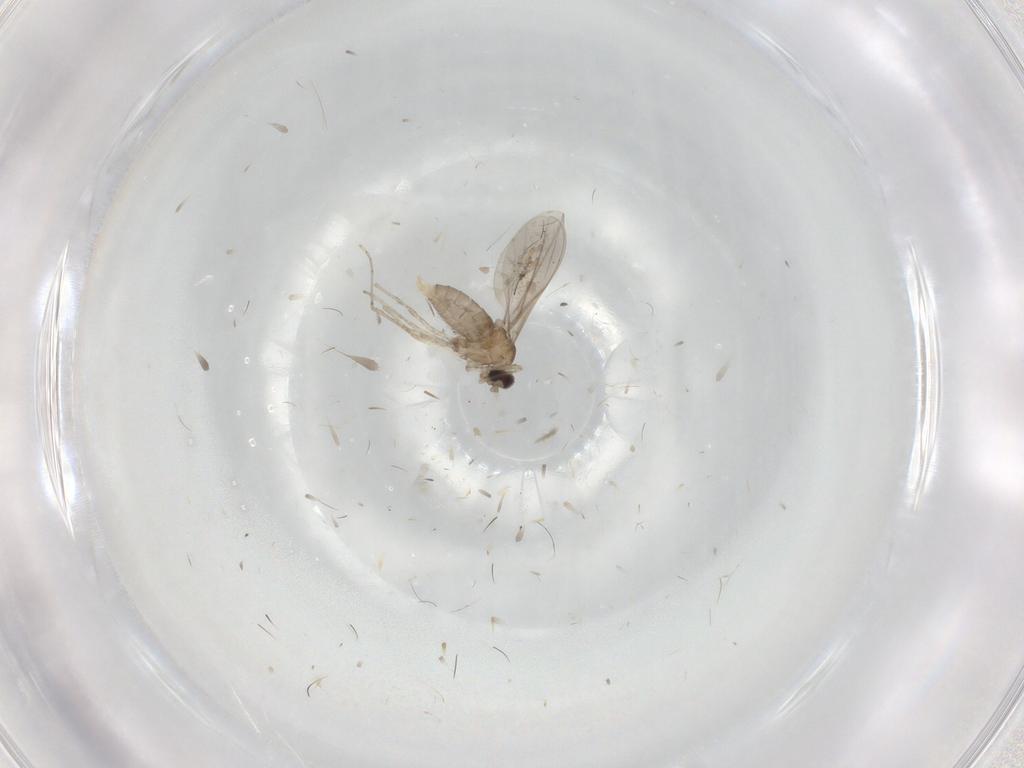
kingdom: Animalia
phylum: Arthropoda
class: Insecta
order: Diptera
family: Cecidomyiidae
